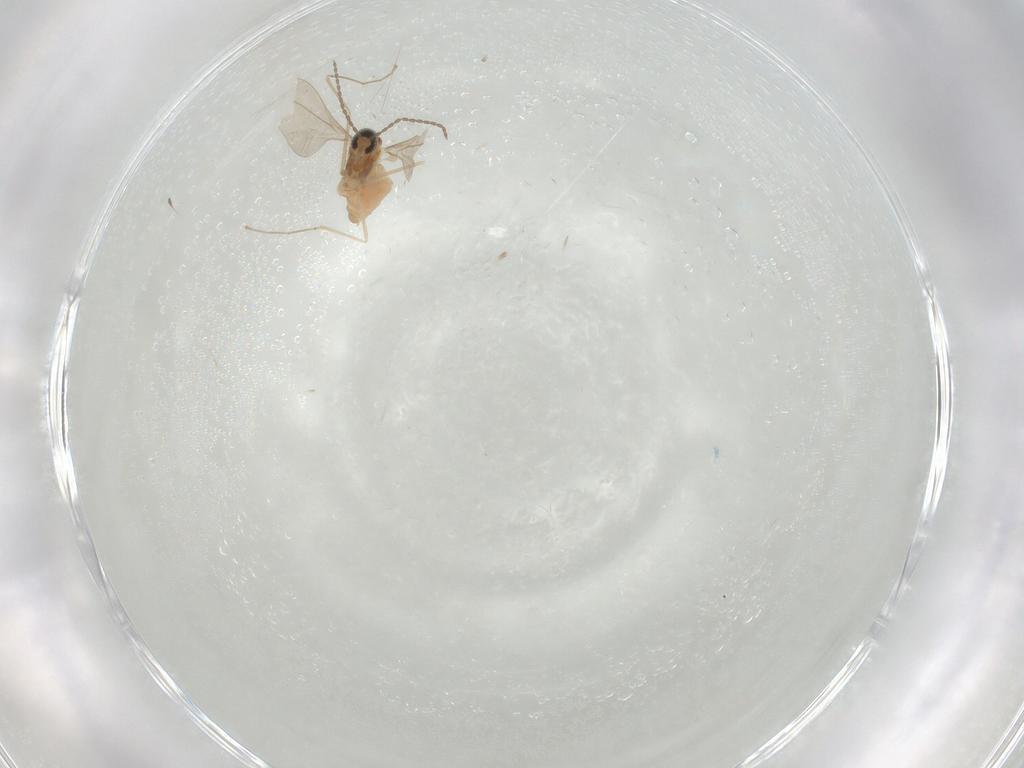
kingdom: Animalia
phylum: Arthropoda
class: Insecta
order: Diptera
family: Cecidomyiidae
